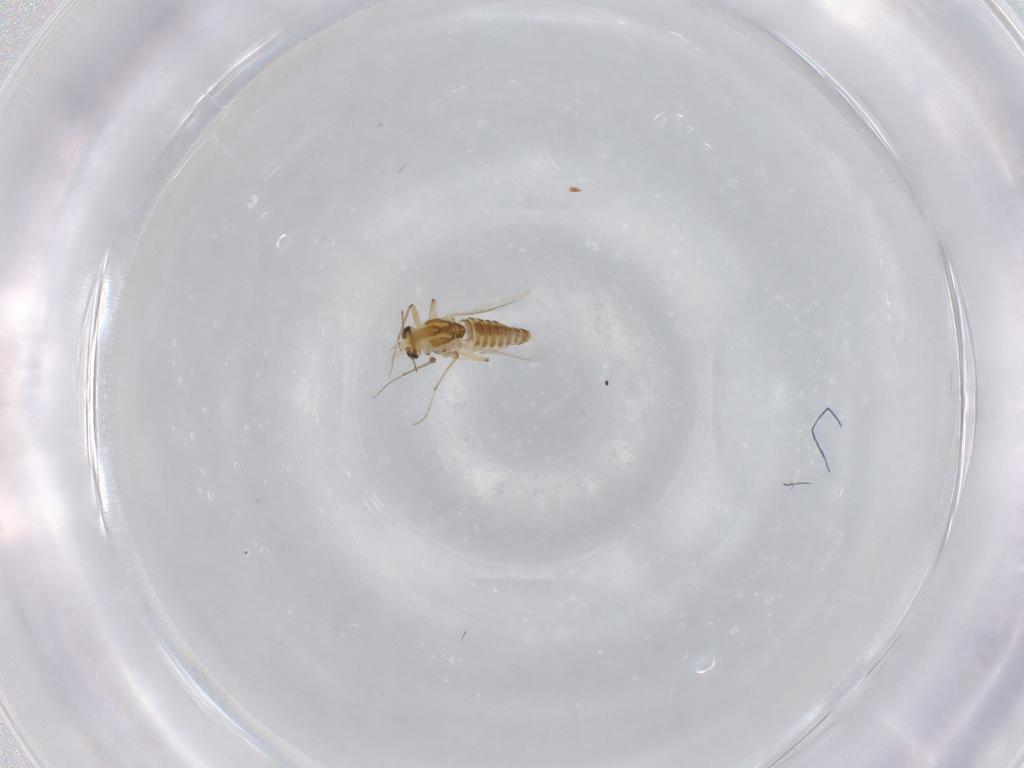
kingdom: Animalia
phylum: Arthropoda
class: Insecta
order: Diptera
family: Chironomidae
